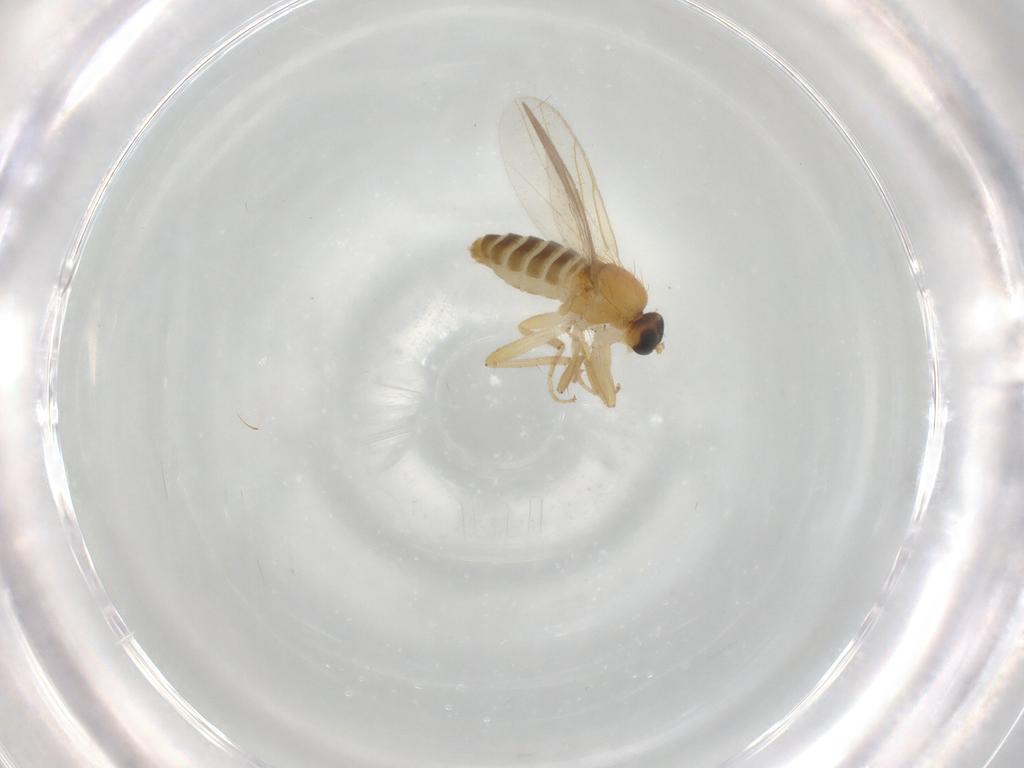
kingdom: Animalia
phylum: Arthropoda
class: Insecta
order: Diptera
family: Hybotidae
